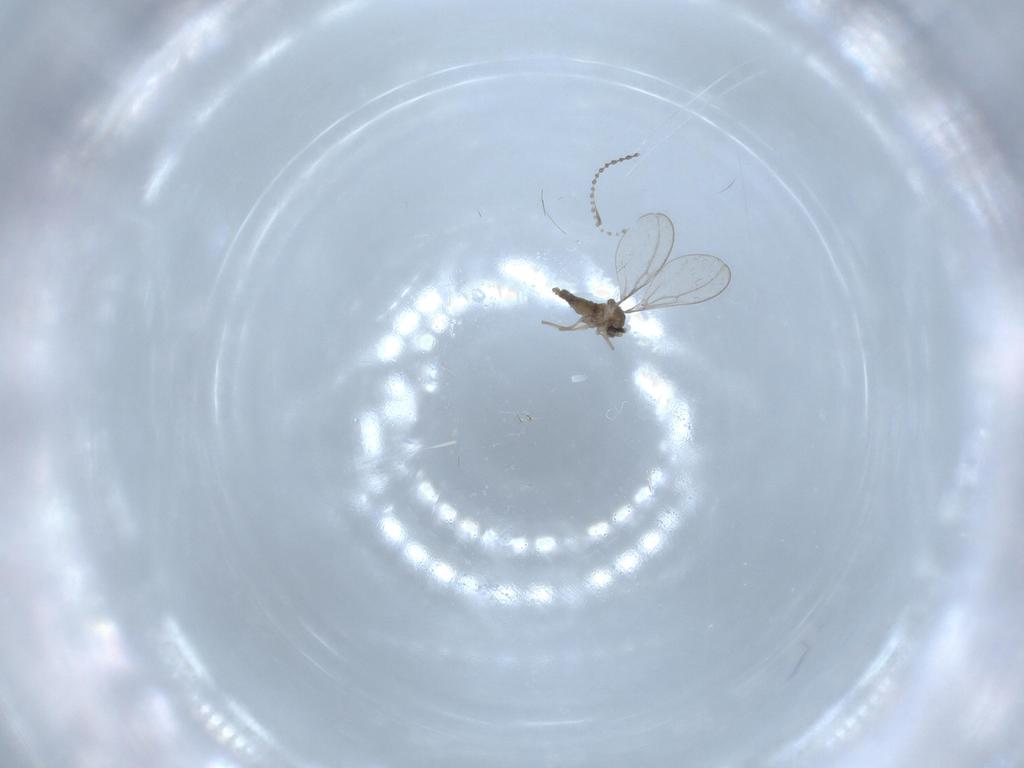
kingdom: Animalia
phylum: Arthropoda
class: Insecta
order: Diptera
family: Cecidomyiidae
